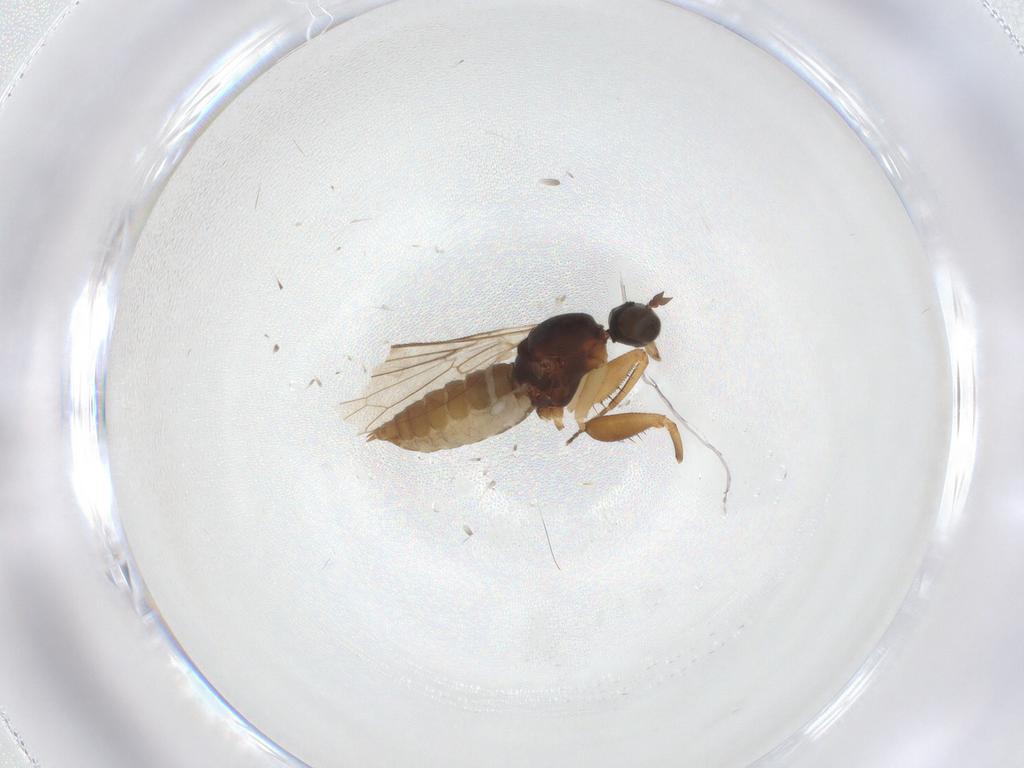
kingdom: Animalia
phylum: Arthropoda
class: Insecta
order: Diptera
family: Empididae
